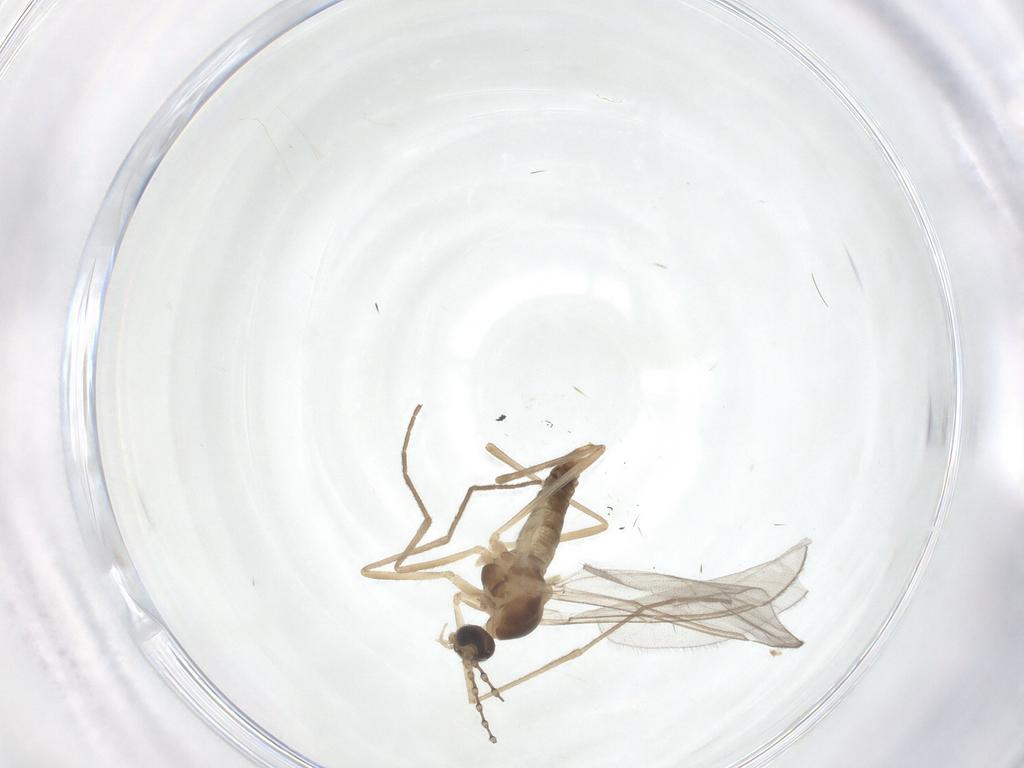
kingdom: Animalia
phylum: Arthropoda
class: Insecta
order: Diptera
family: Cecidomyiidae
